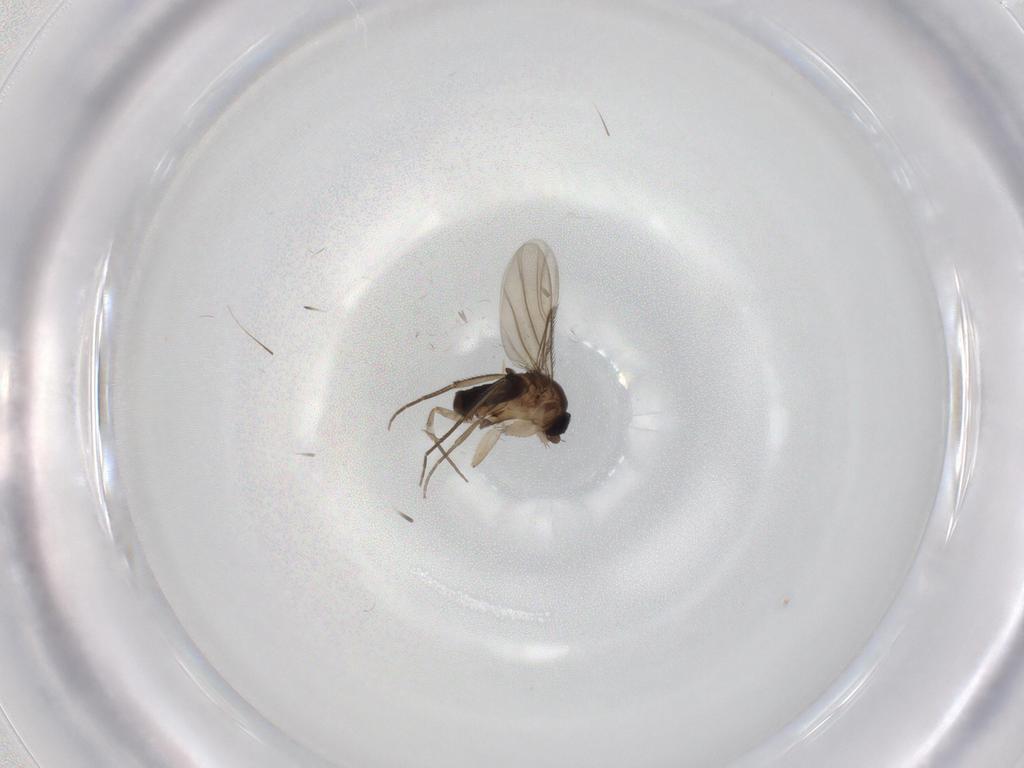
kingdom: Animalia
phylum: Arthropoda
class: Insecta
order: Diptera
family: Phoridae
